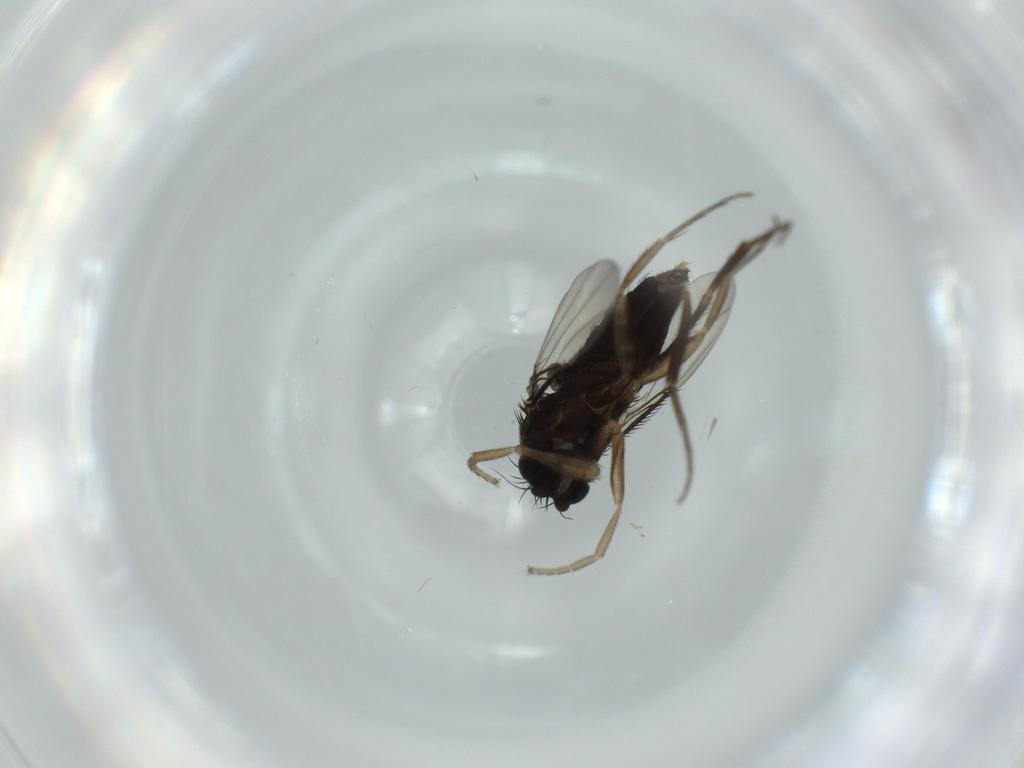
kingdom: Animalia
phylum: Arthropoda
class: Insecta
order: Diptera
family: Phoridae
